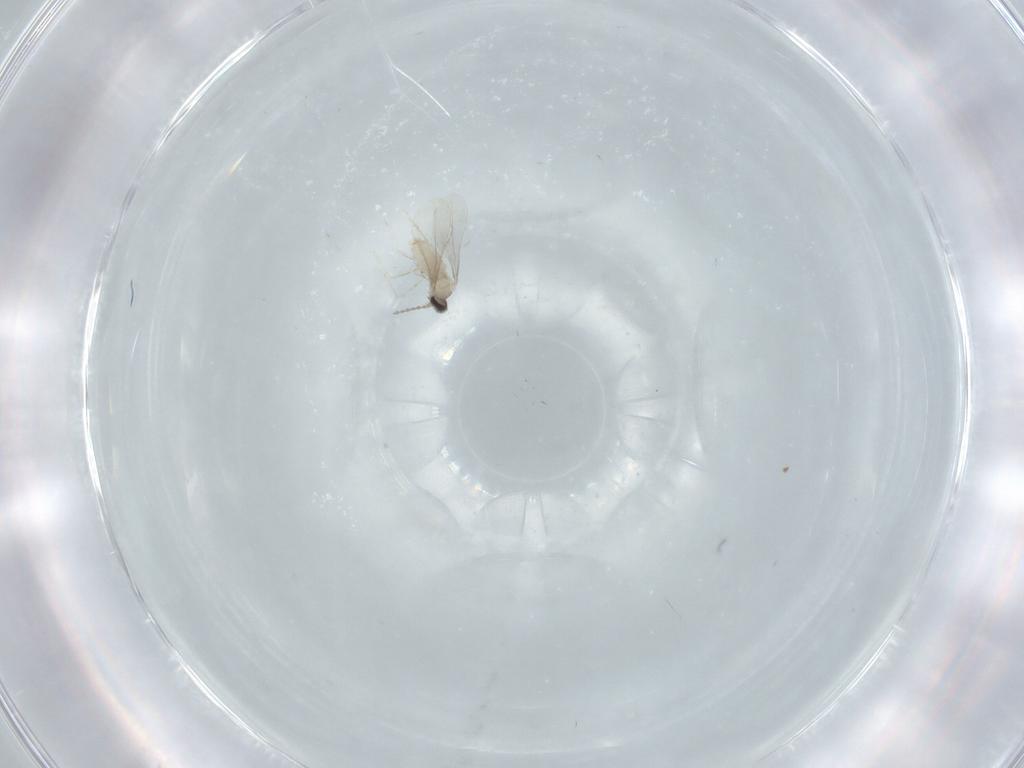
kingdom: Animalia
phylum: Arthropoda
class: Insecta
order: Diptera
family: Cecidomyiidae
